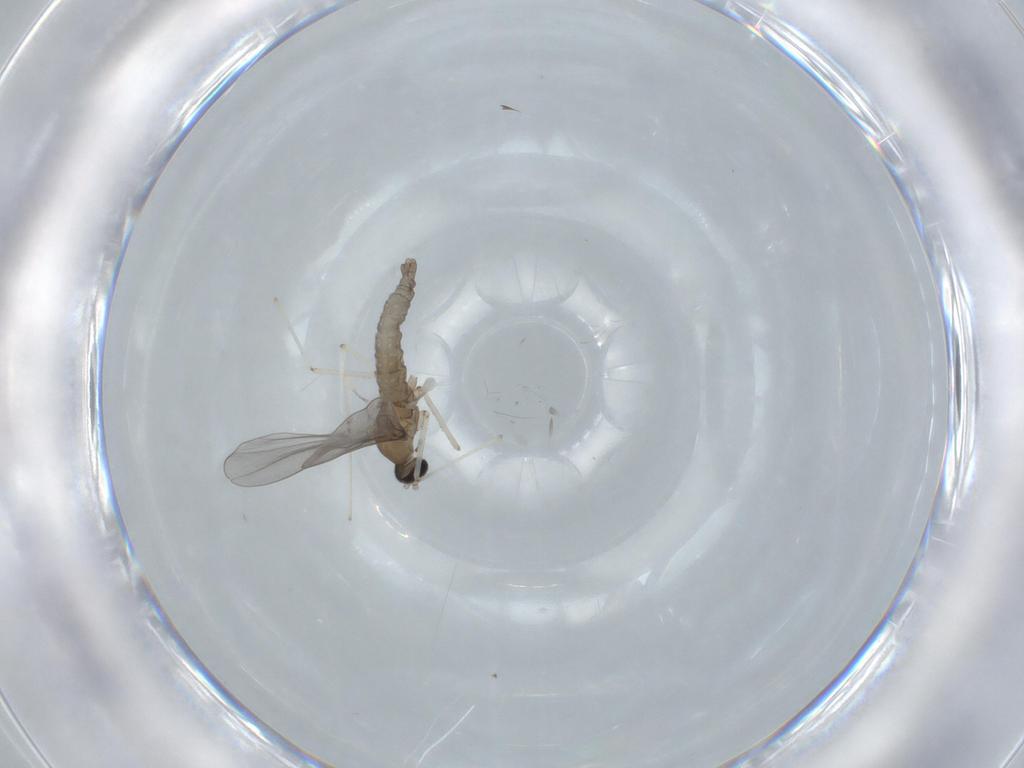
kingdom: Animalia
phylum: Arthropoda
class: Insecta
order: Diptera
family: Cecidomyiidae
